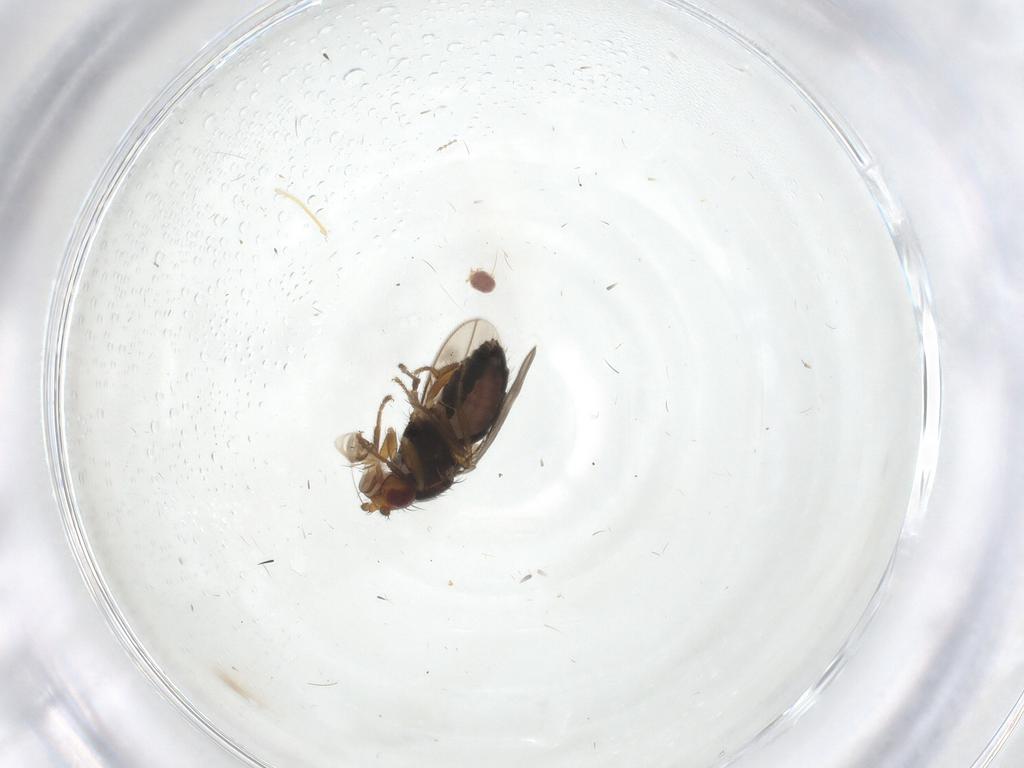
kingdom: Animalia
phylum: Arthropoda
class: Insecta
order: Diptera
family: Sphaeroceridae
